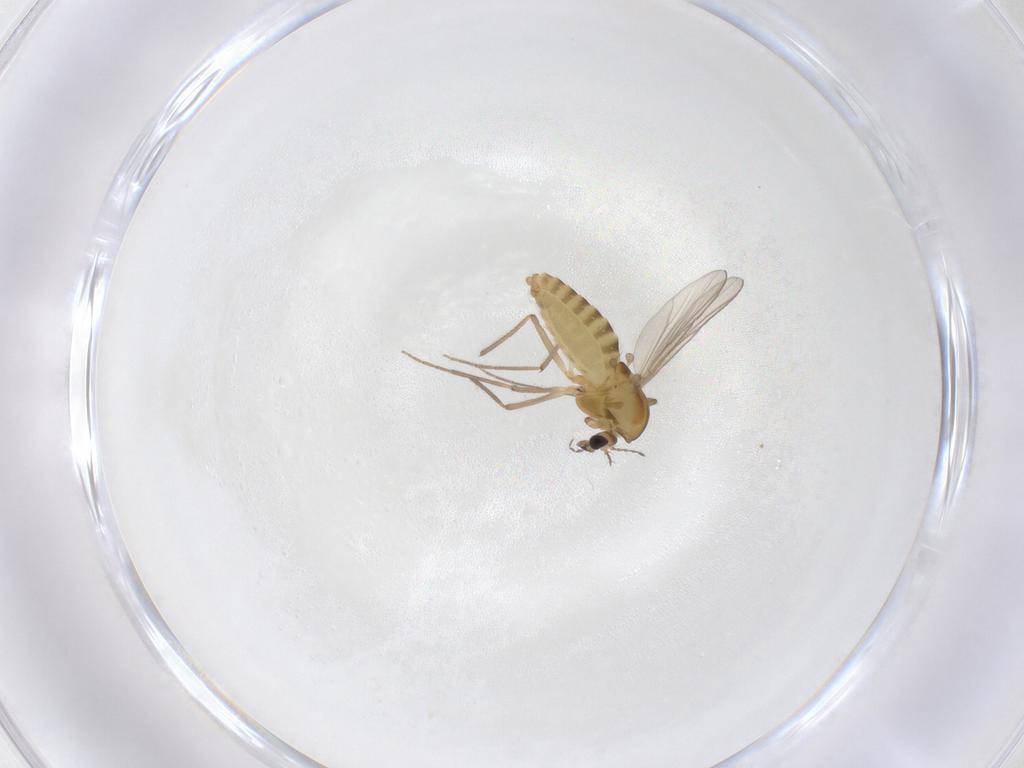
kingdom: Animalia
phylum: Arthropoda
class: Insecta
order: Diptera
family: Chironomidae
